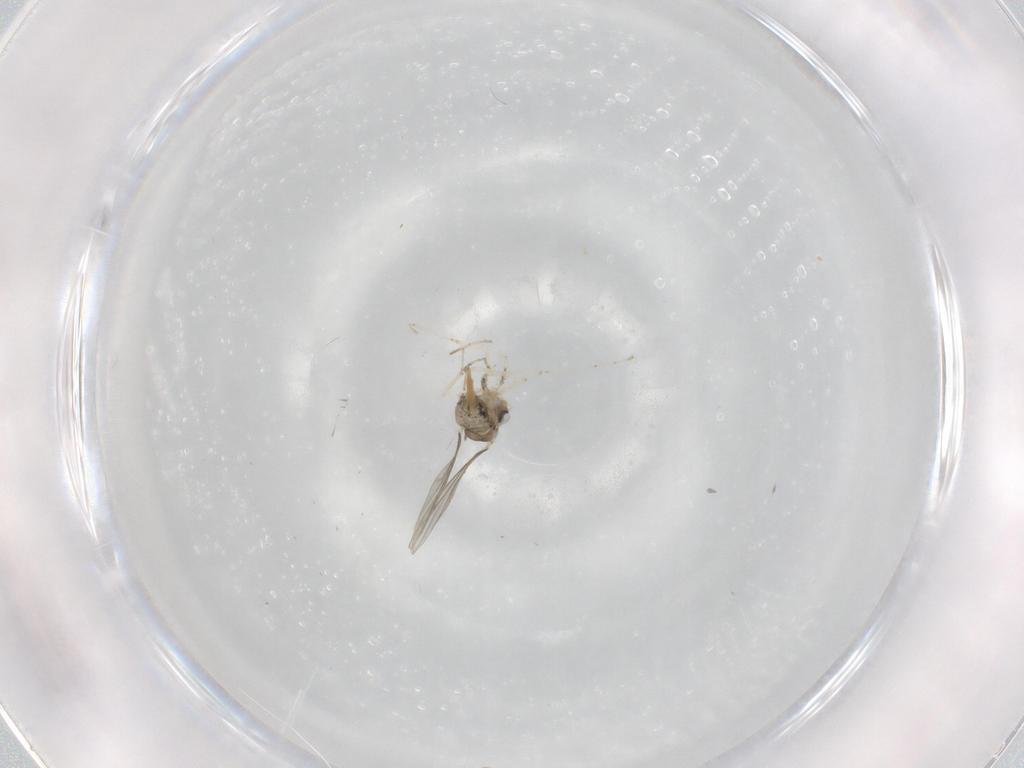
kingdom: Animalia
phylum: Arthropoda
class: Insecta
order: Diptera
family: Cecidomyiidae
